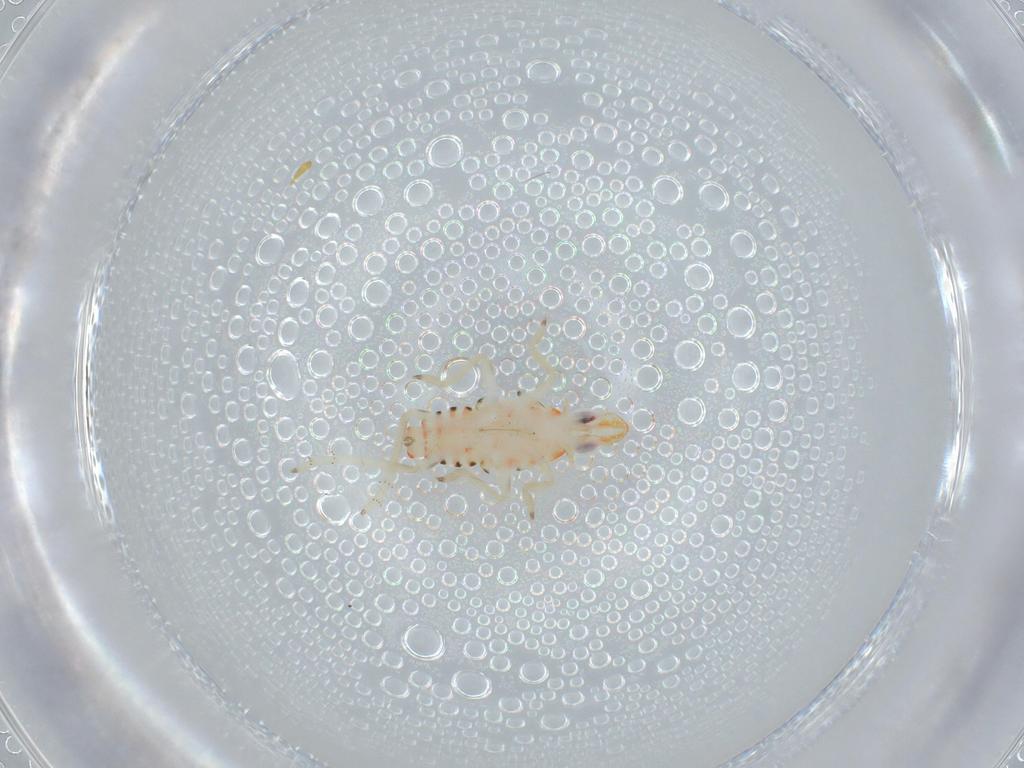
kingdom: Animalia
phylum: Arthropoda
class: Insecta
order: Hemiptera
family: Tropiduchidae
